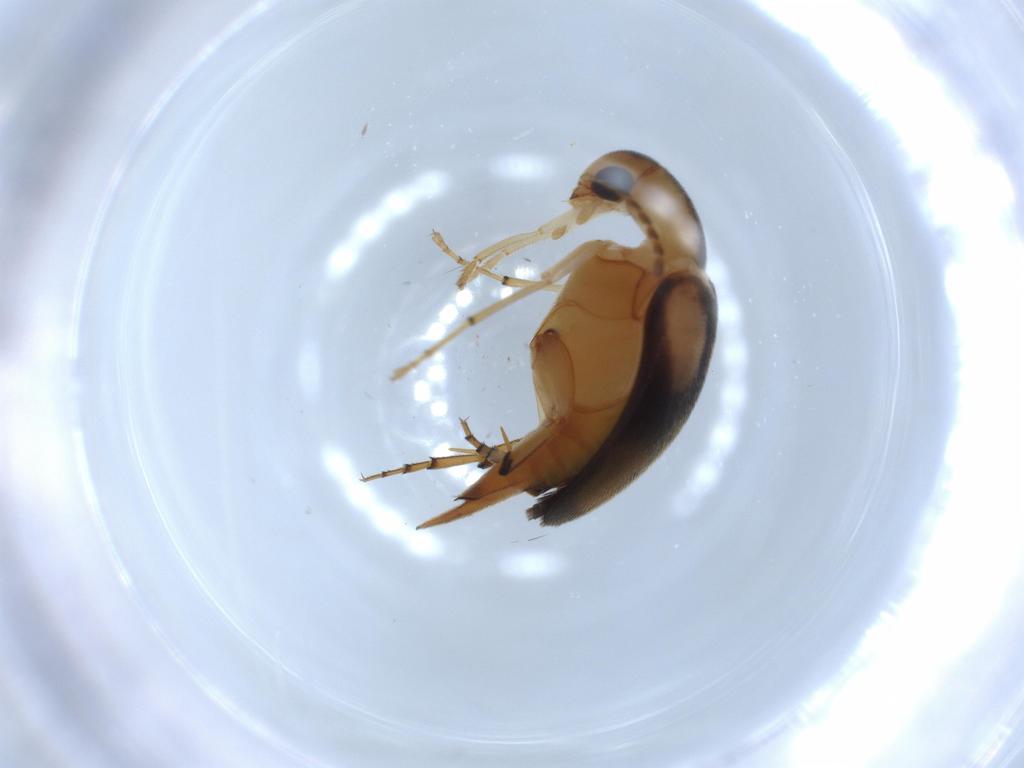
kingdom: Animalia
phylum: Arthropoda
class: Insecta
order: Coleoptera
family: Mordellidae
